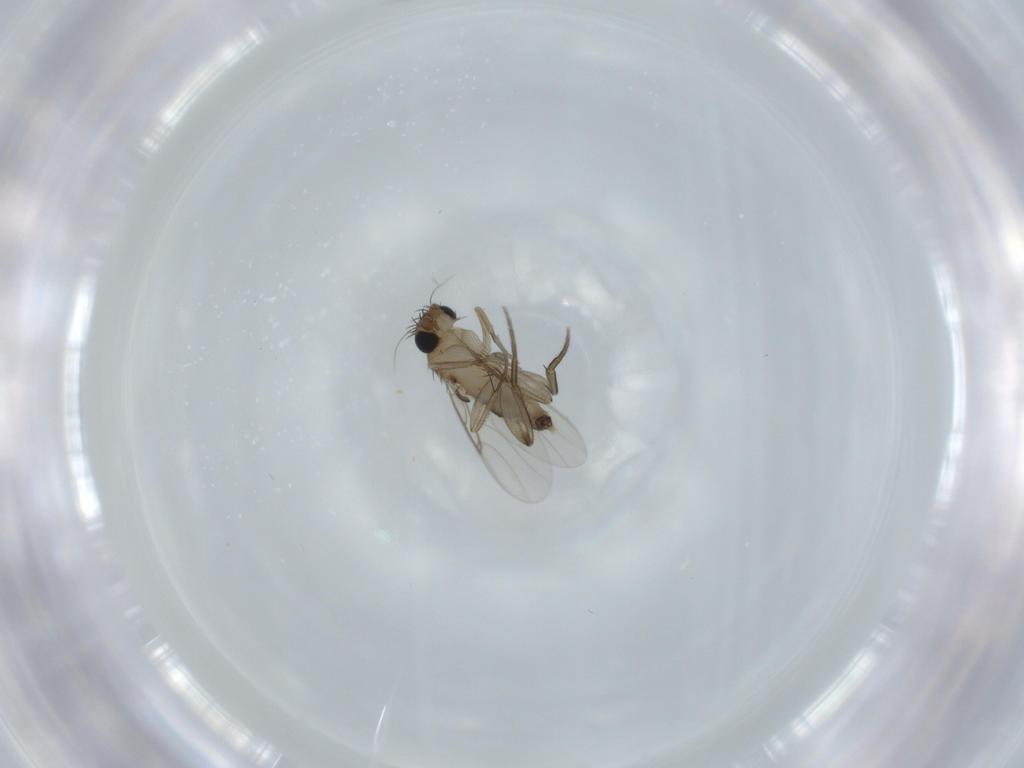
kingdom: Animalia
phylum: Arthropoda
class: Insecta
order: Diptera
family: Phoridae
